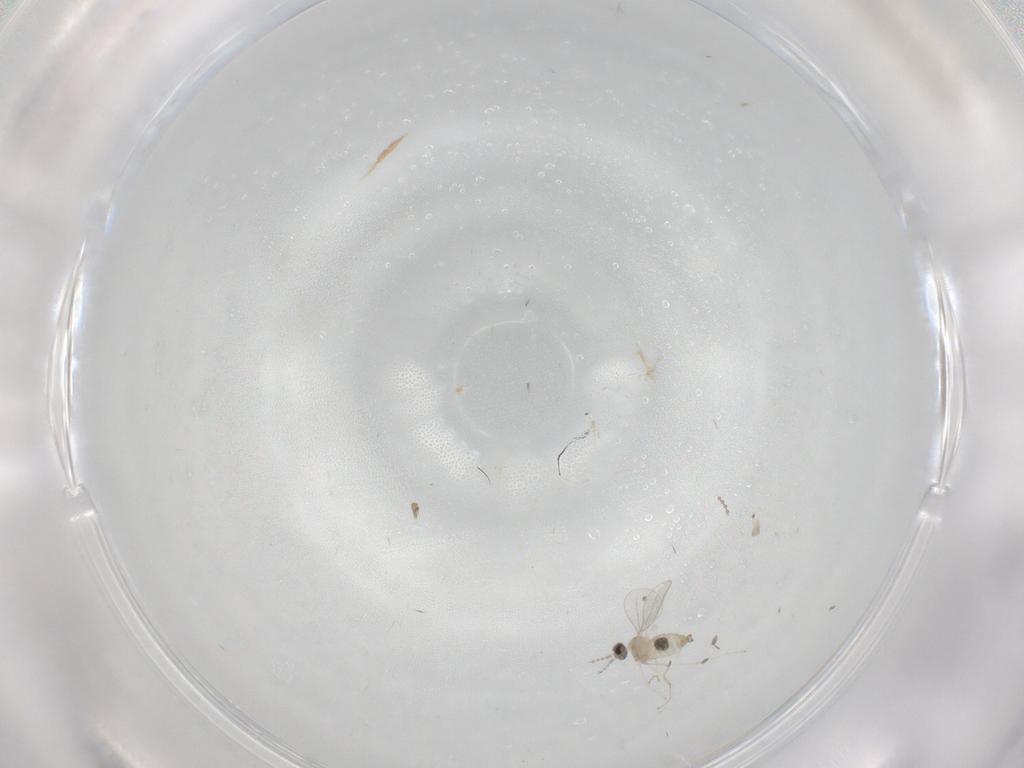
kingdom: Animalia
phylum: Arthropoda
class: Insecta
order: Diptera
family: Cecidomyiidae
